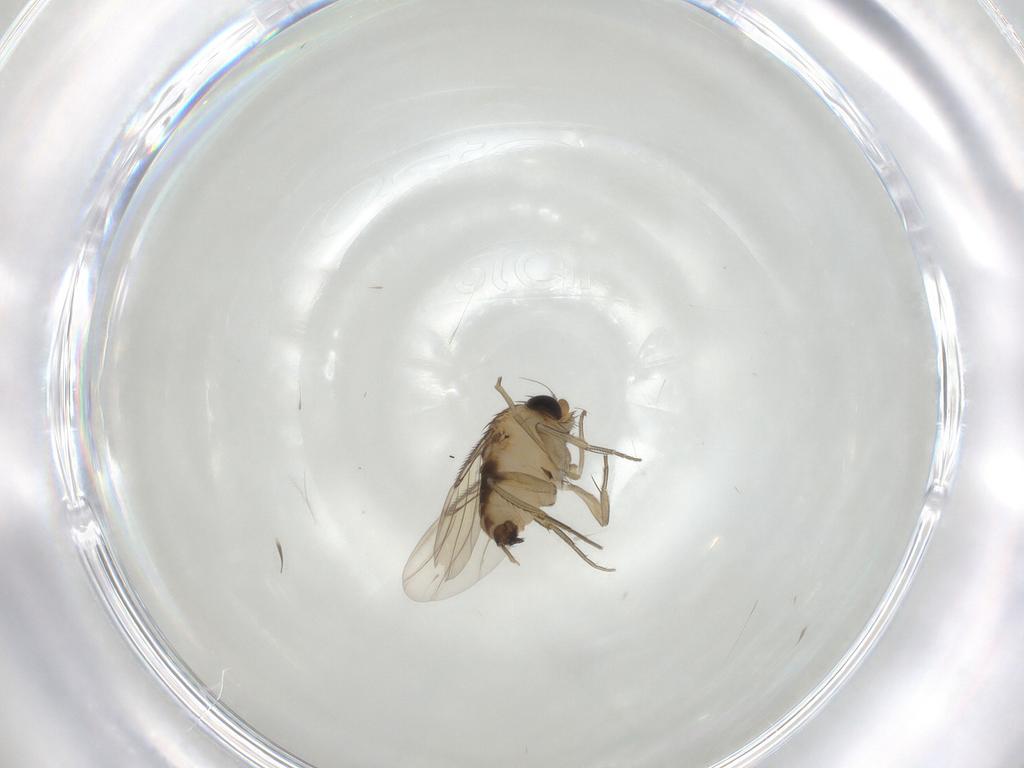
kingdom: Animalia
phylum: Arthropoda
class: Insecta
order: Diptera
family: Phoridae
